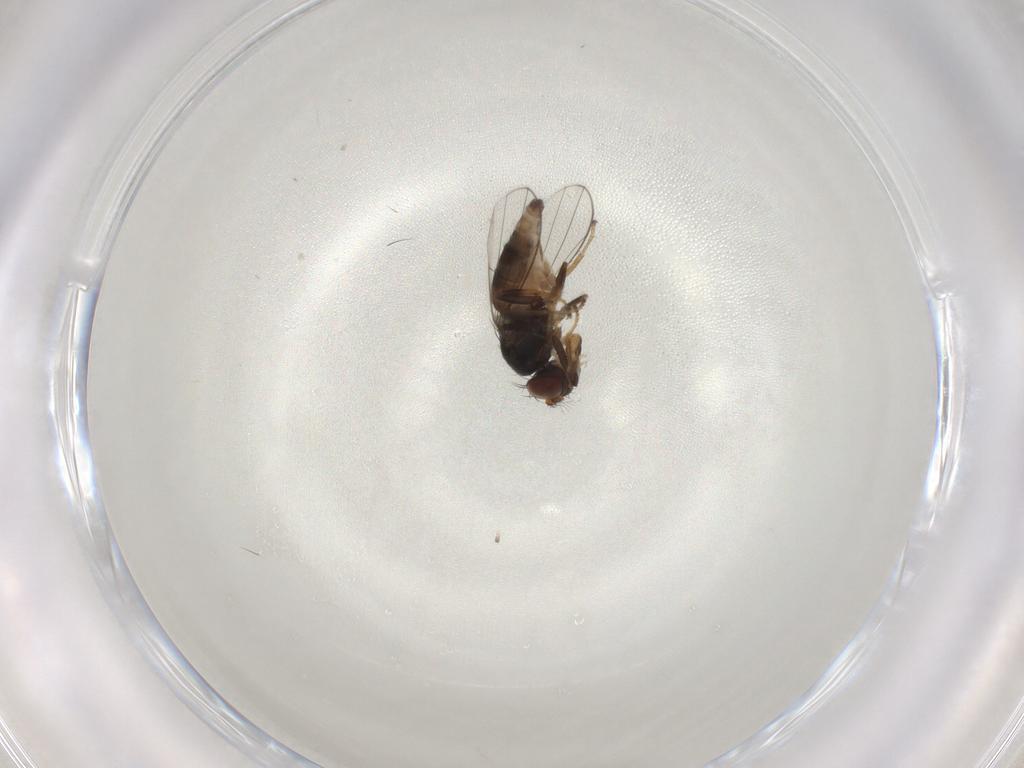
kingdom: Animalia
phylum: Arthropoda
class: Insecta
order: Diptera
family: Ephydridae
